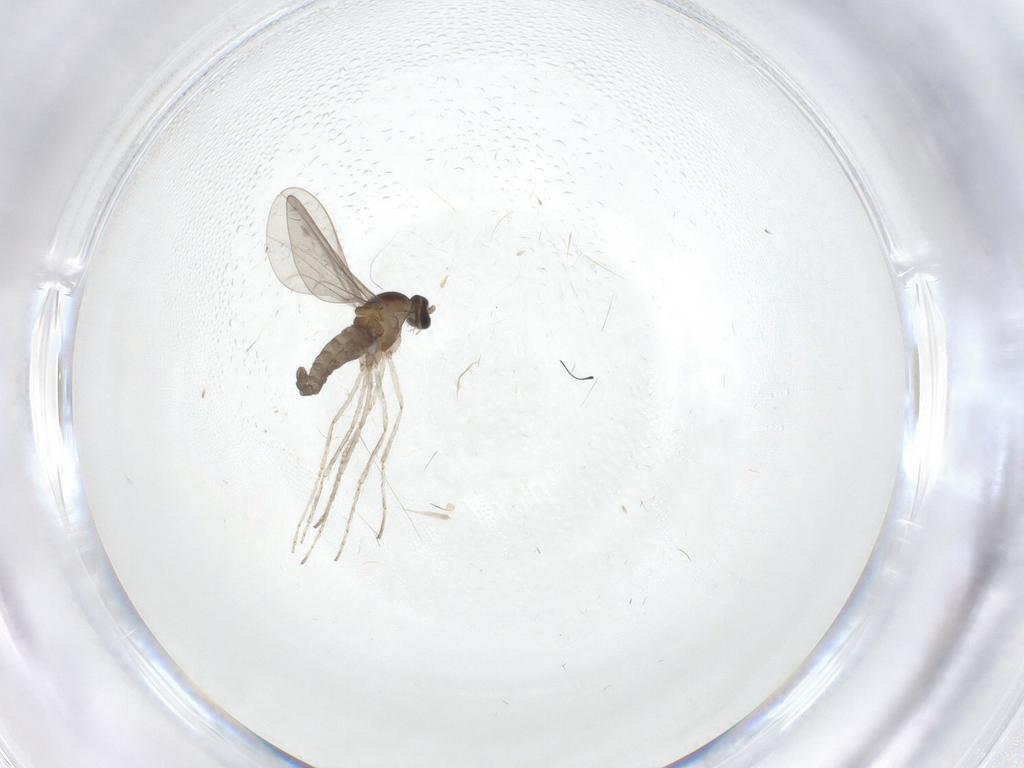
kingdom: Animalia
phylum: Arthropoda
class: Insecta
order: Diptera
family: Cecidomyiidae
